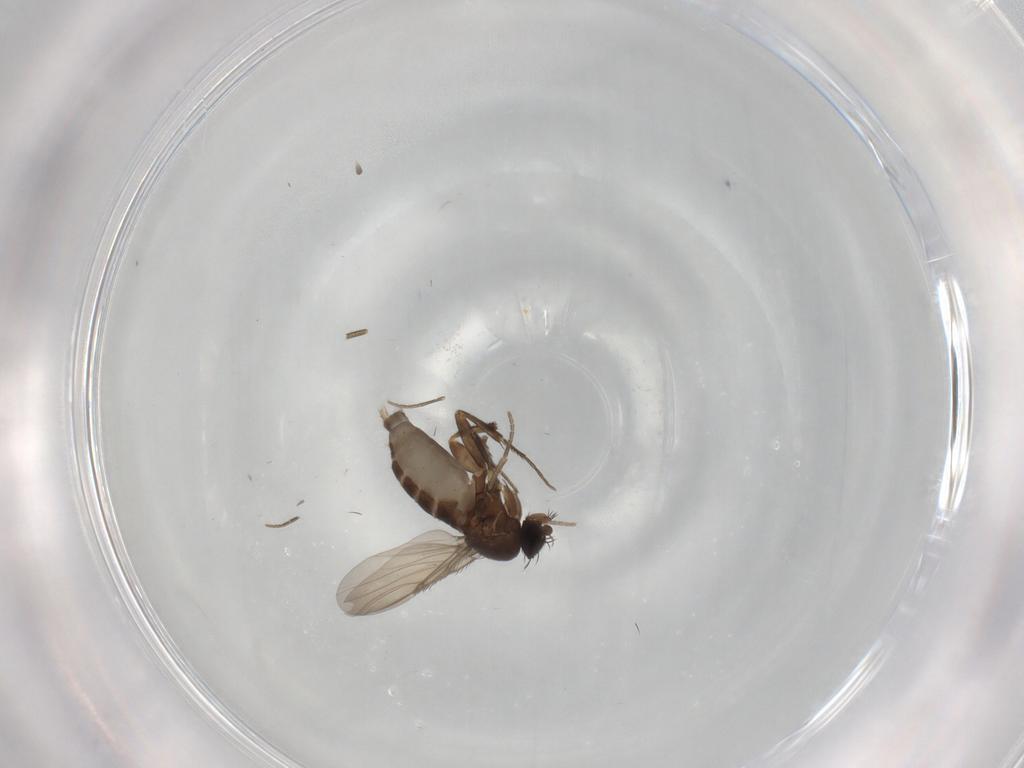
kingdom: Animalia
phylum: Arthropoda
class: Insecta
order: Diptera
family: Phoridae
